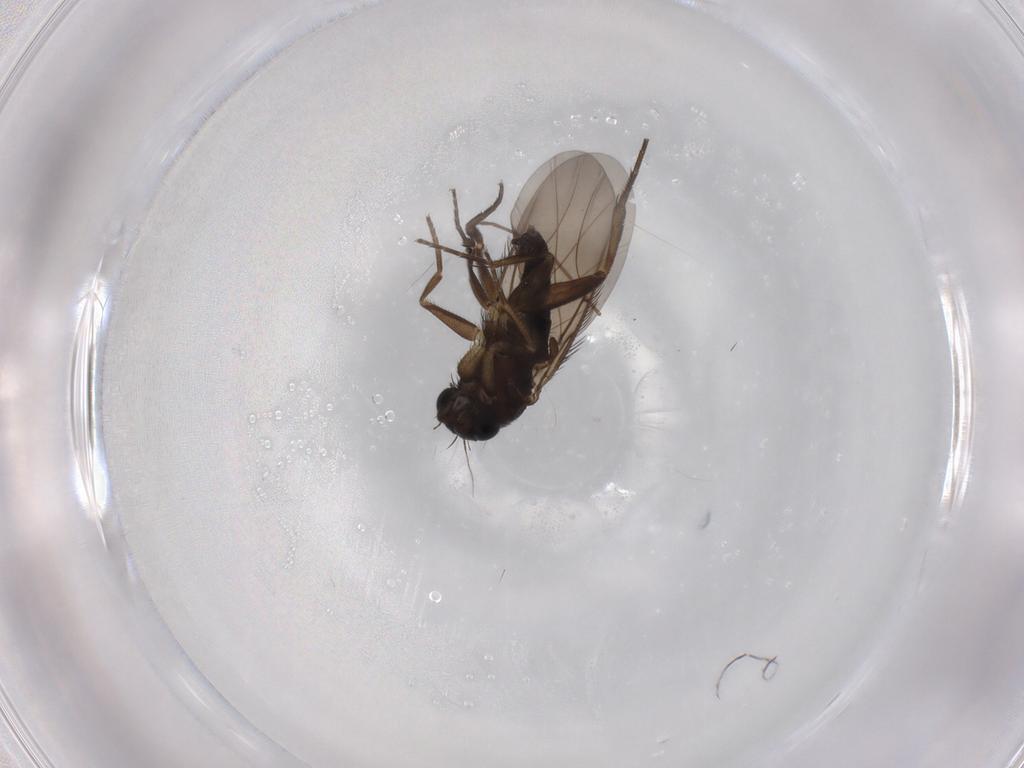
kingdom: Animalia
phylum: Arthropoda
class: Insecta
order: Diptera
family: Phoridae
